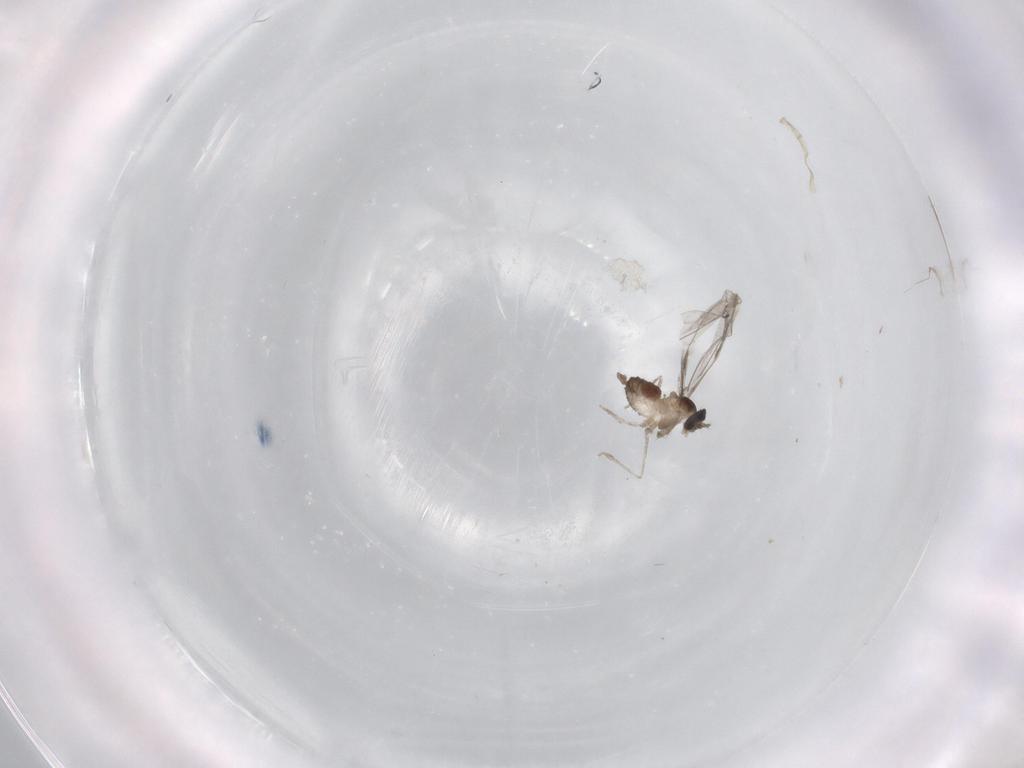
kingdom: Animalia
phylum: Arthropoda
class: Insecta
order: Diptera
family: Cecidomyiidae
